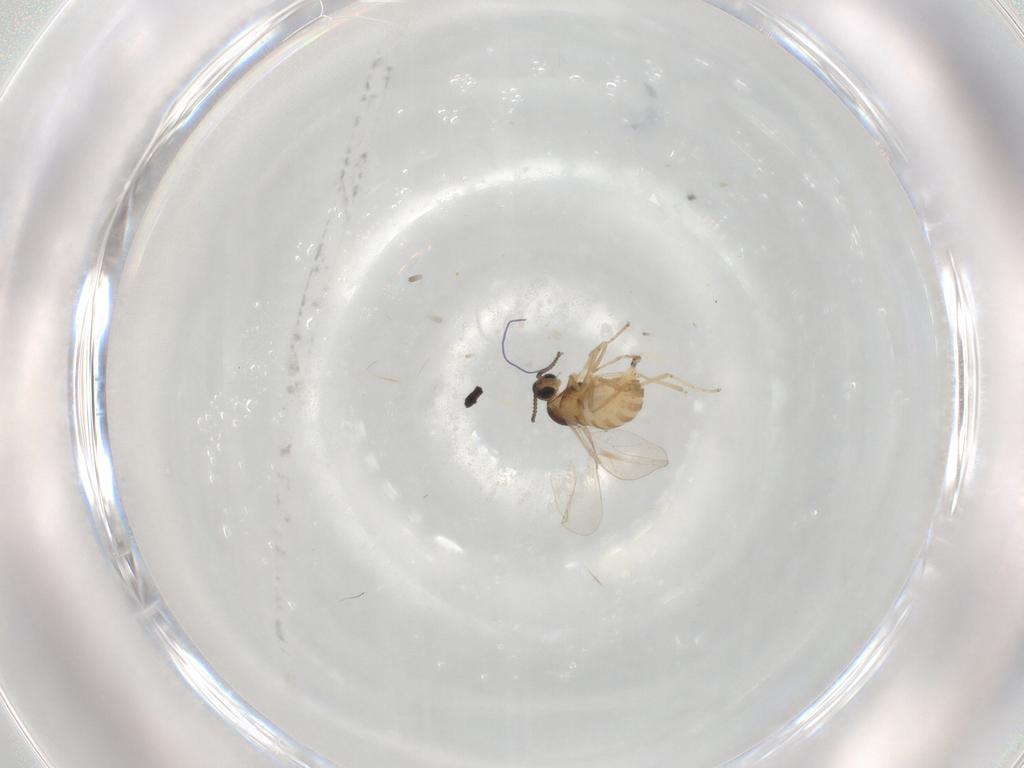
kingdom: Animalia
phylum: Arthropoda
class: Insecta
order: Diptera
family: Cecidomyiidae
